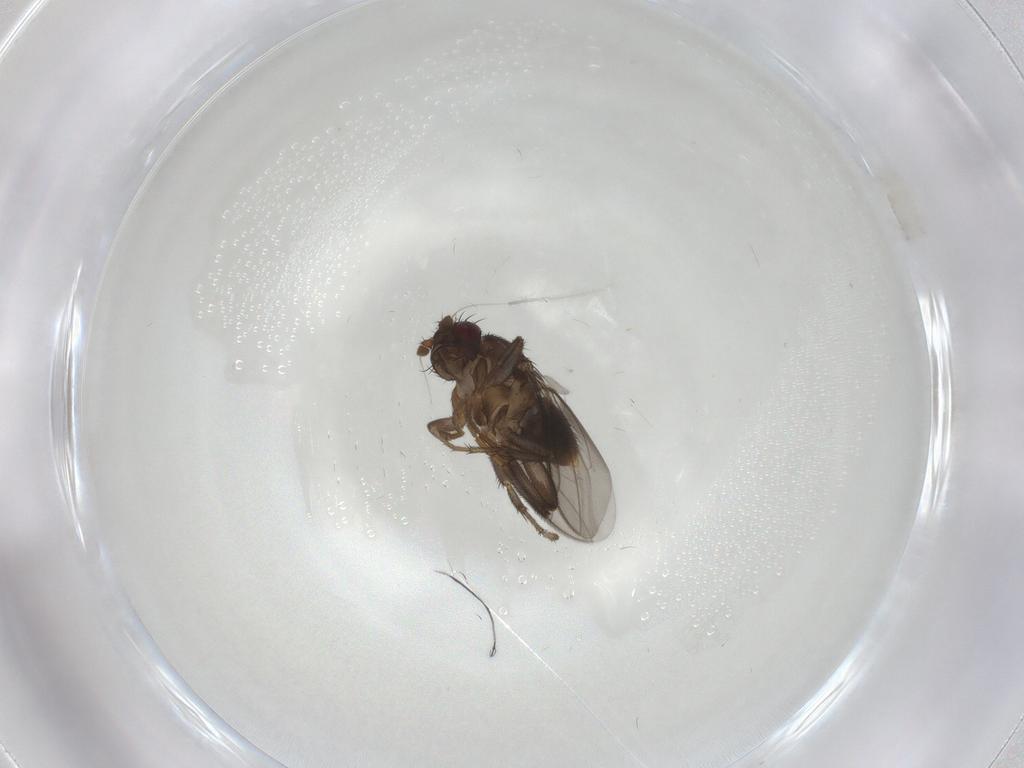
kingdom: Animalia
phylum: Arthropoda
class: Insecta
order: Diptera
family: Sphaeroceridae
